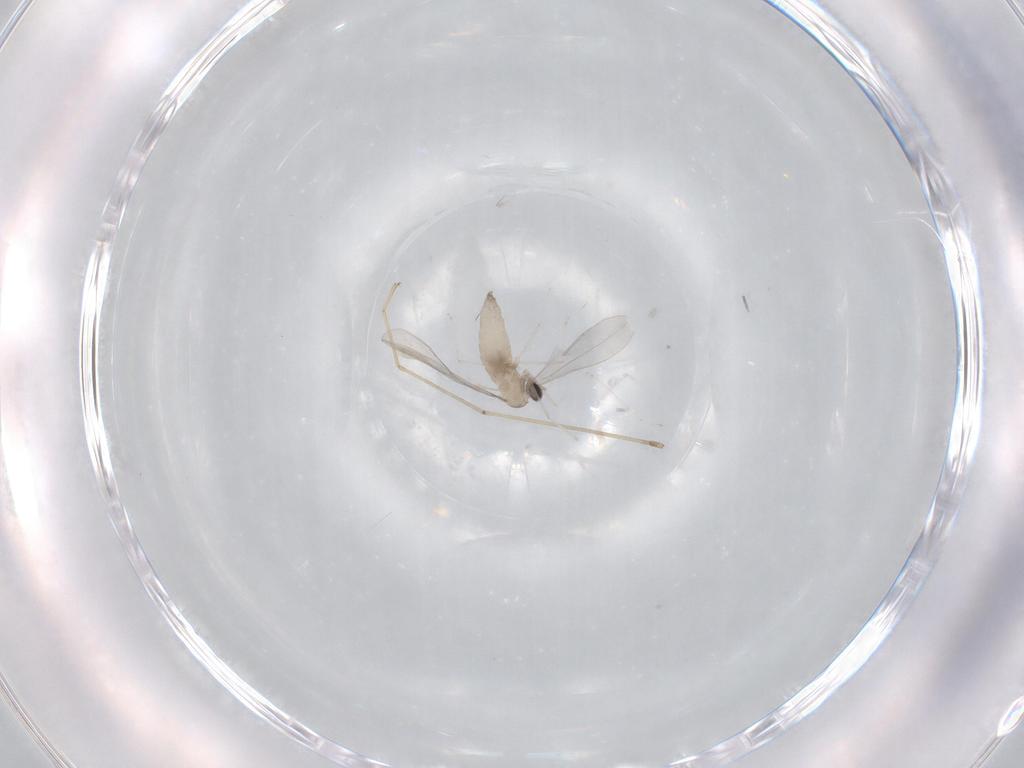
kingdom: Animalia
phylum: Arthropoda
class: Insecta
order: Diptera
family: Cecidomyiidae
